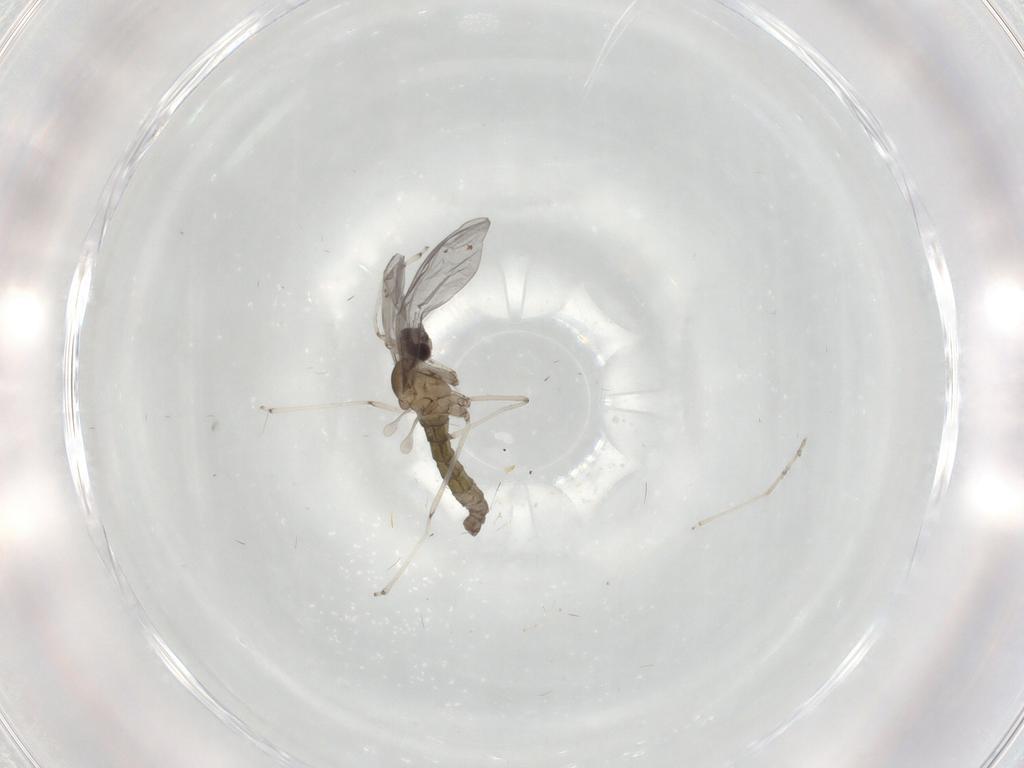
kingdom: Animalia
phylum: Arthropoda
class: Insecta
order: Diptera
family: Cecidomyiidae
